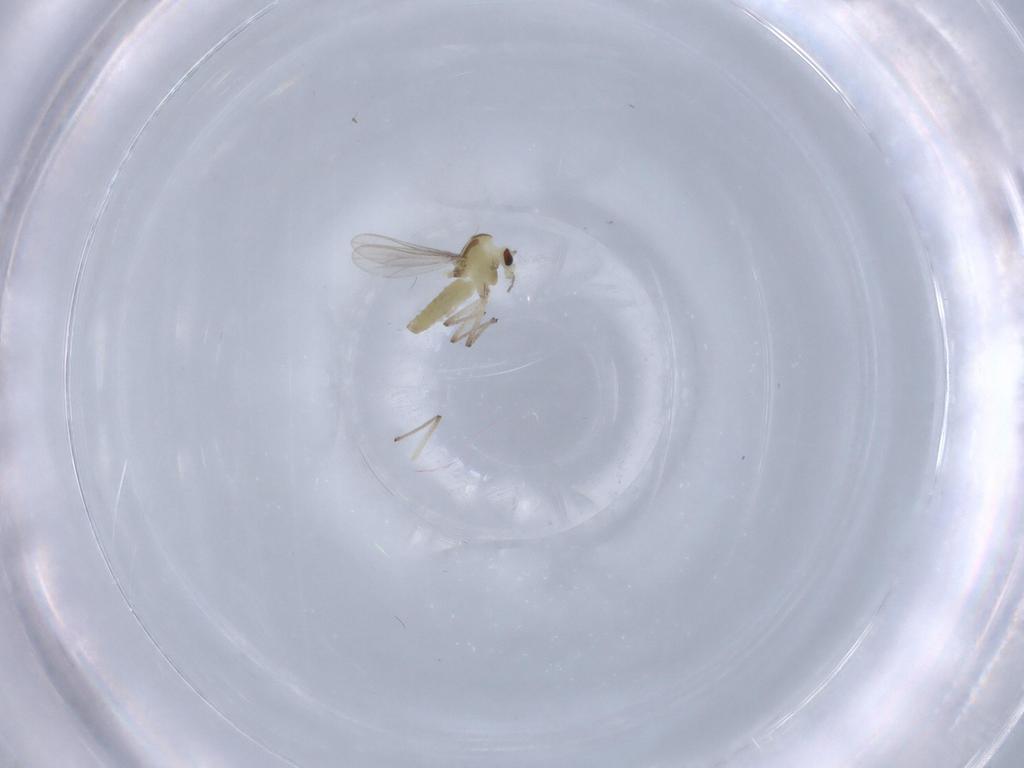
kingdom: Animalia
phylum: Arthropoda
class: Insecta
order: Diptera
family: Chironomidae
